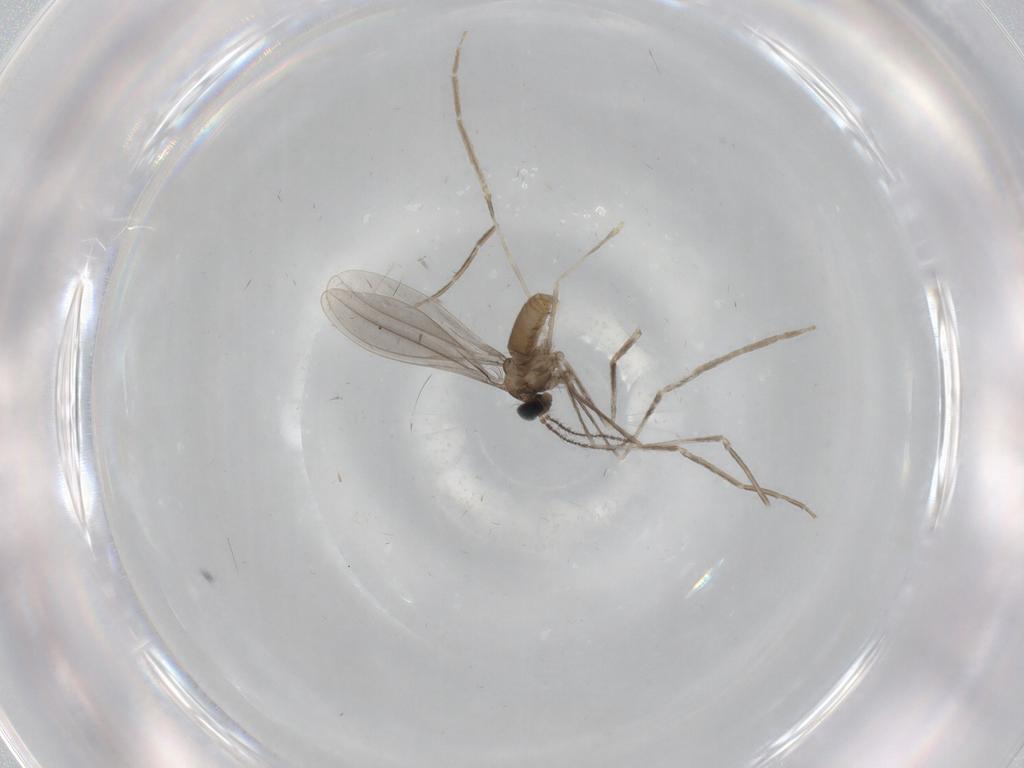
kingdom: Animalia
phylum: Arthropoda
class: Insecta
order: Diptera
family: Cecidomyiidae
